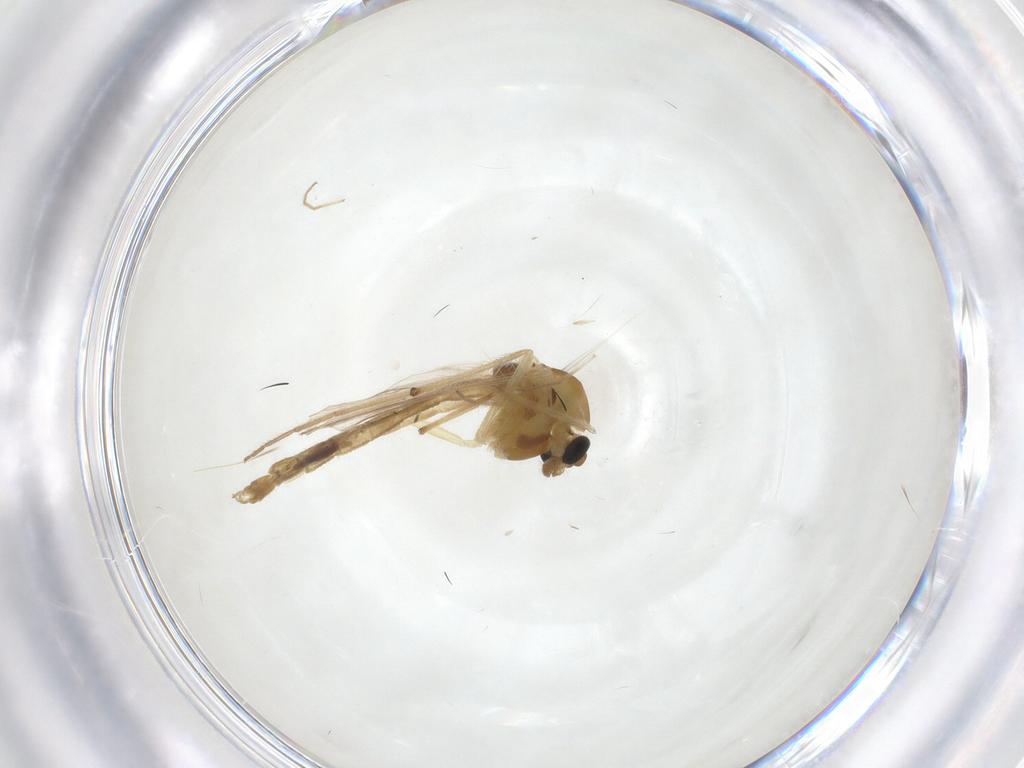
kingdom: Animalia
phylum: Arthropoda
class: Insecta
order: Diptera
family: Chironomidae
